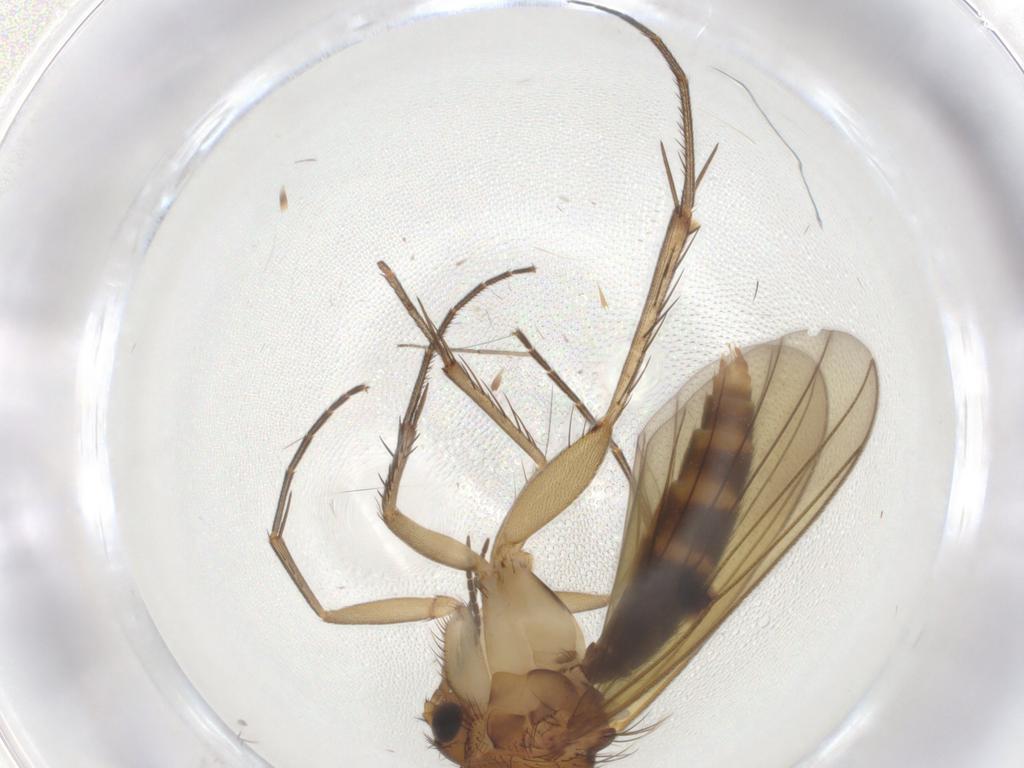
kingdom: Animalia
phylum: Arthropoda
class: Insecta
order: Diptera
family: Mycetophilidae
